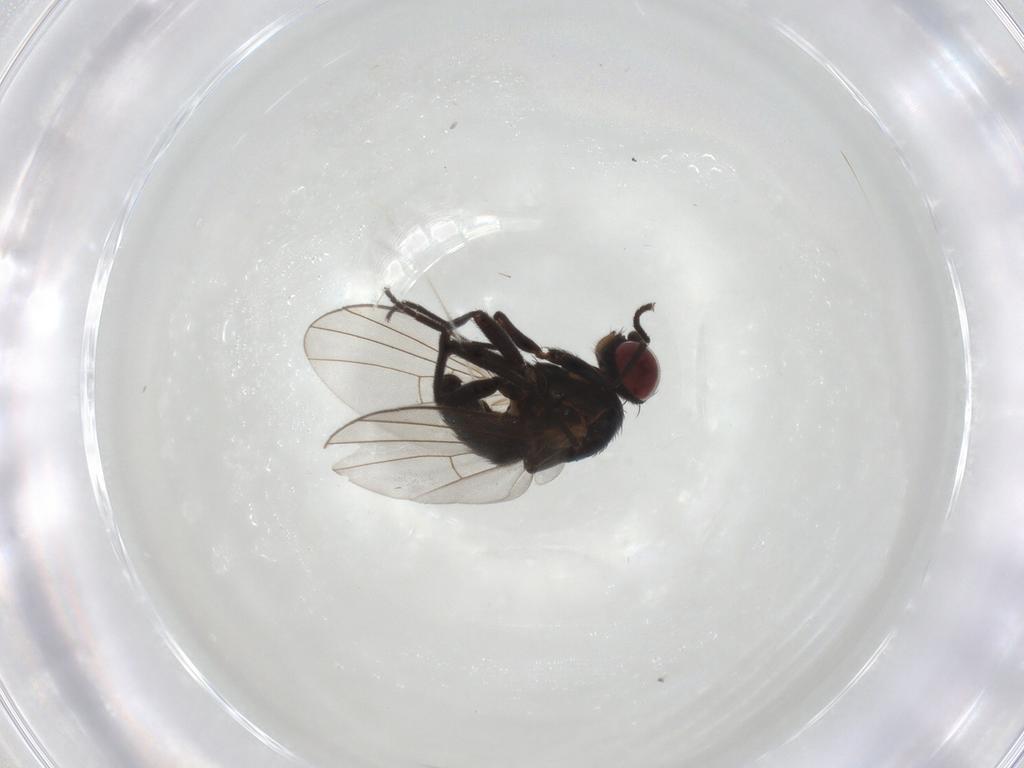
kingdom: Animalia
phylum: Arthropoda
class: Insecta
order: Diptera
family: Agromyzidae
